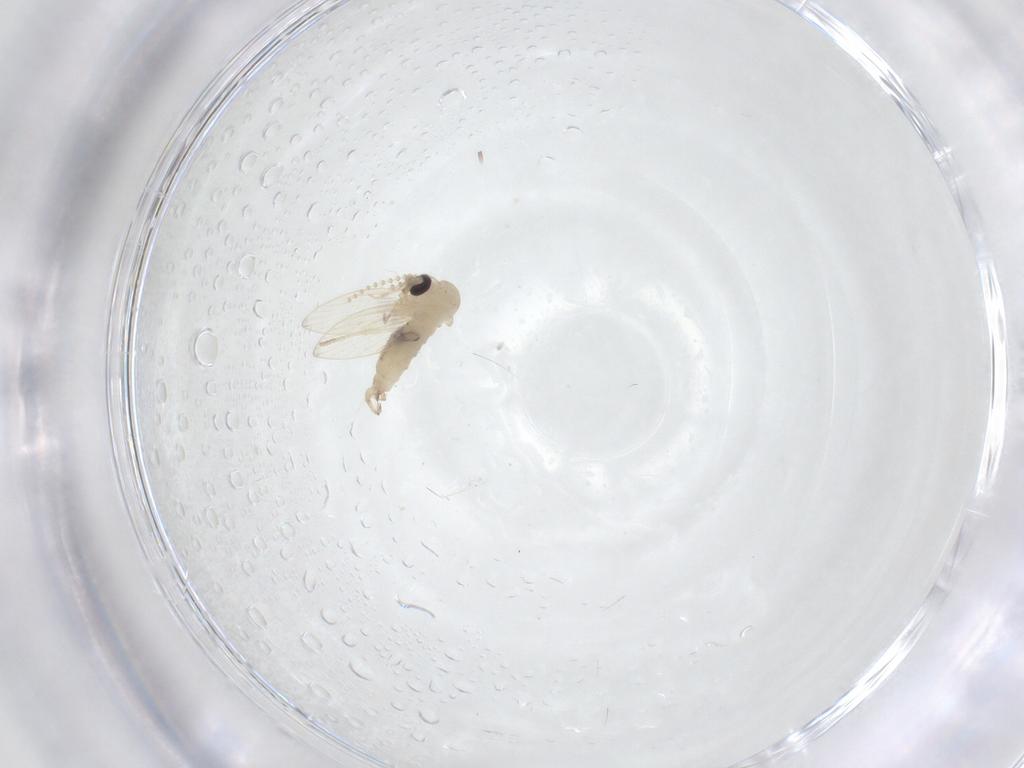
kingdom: Animalia
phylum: Arthropoda
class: Insecta
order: Diptera
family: Psychodidae
